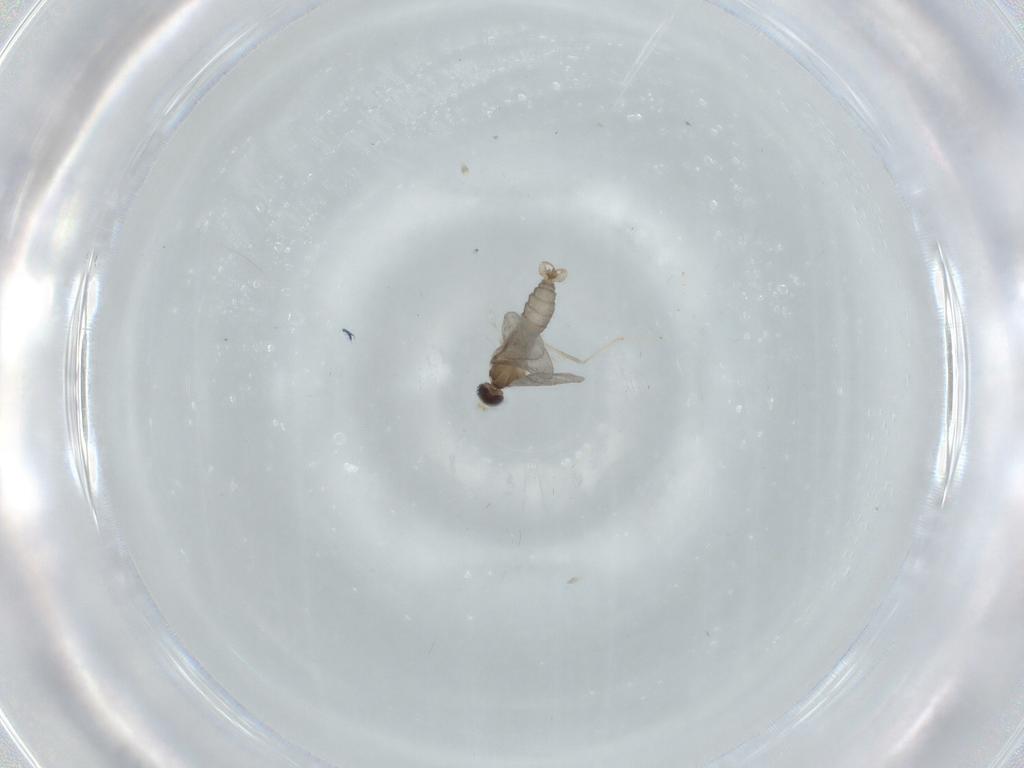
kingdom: Animalia
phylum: Arthropoda
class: Insecta
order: Diptera
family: Cecidomyiidae
